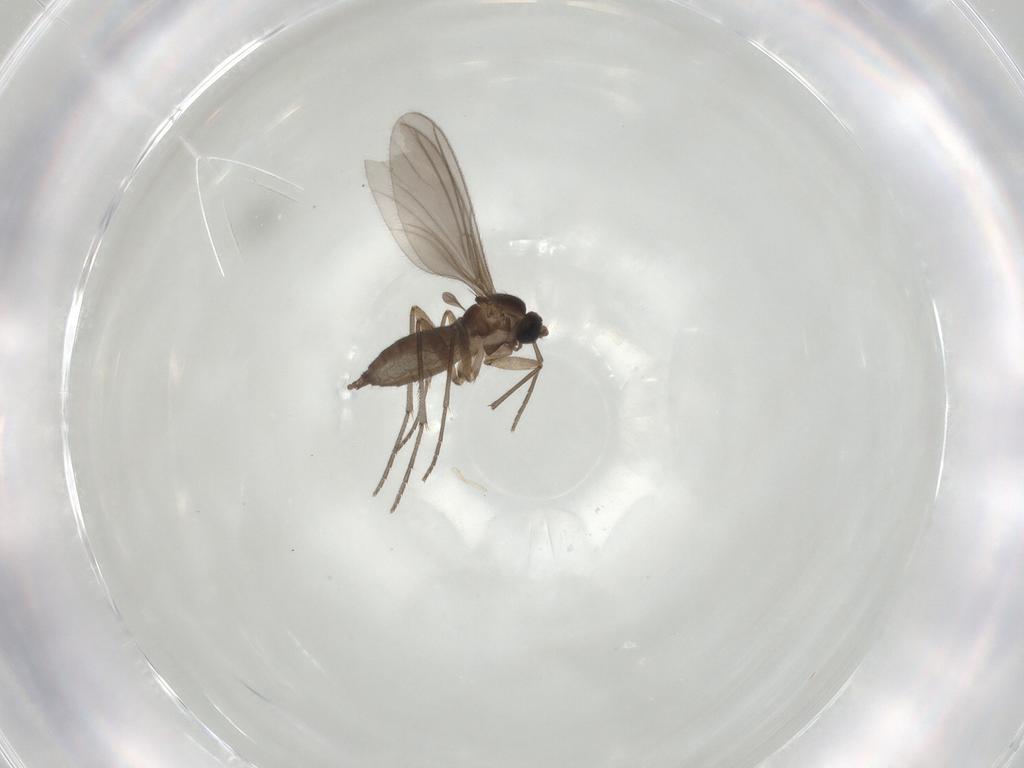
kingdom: Animalia
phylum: Arthropoda
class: Insecta
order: Diptera
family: Sciaridae
